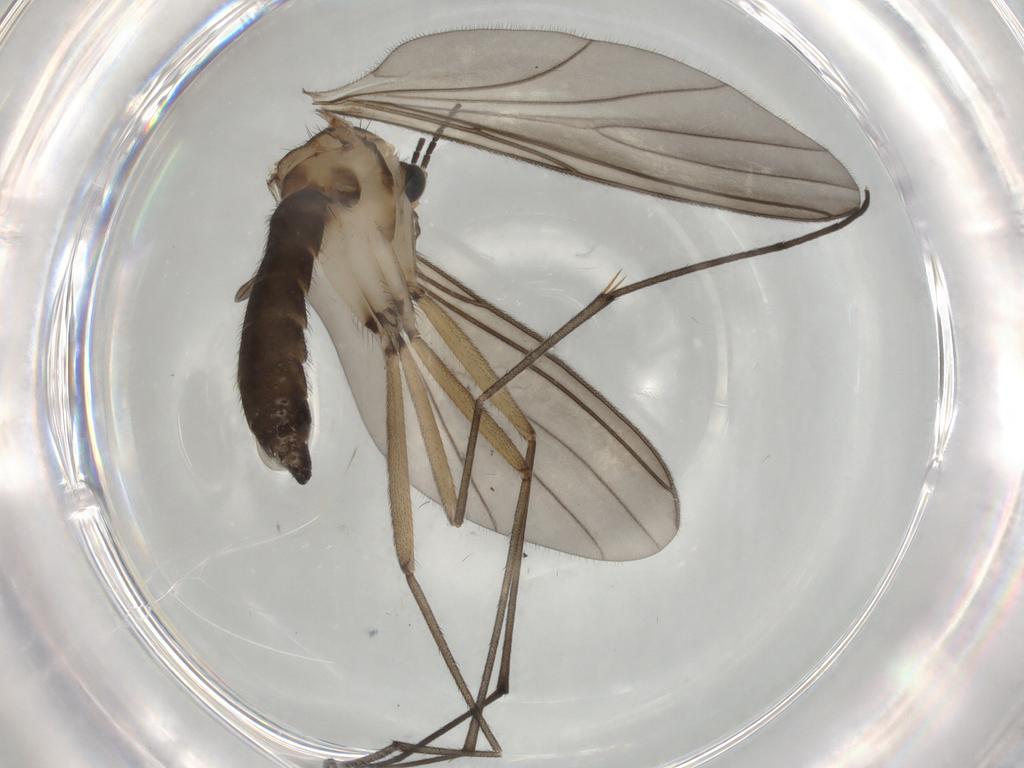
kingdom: Animalia
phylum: Arthropoda
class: Insecta
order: Diptera
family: Sciaridae
